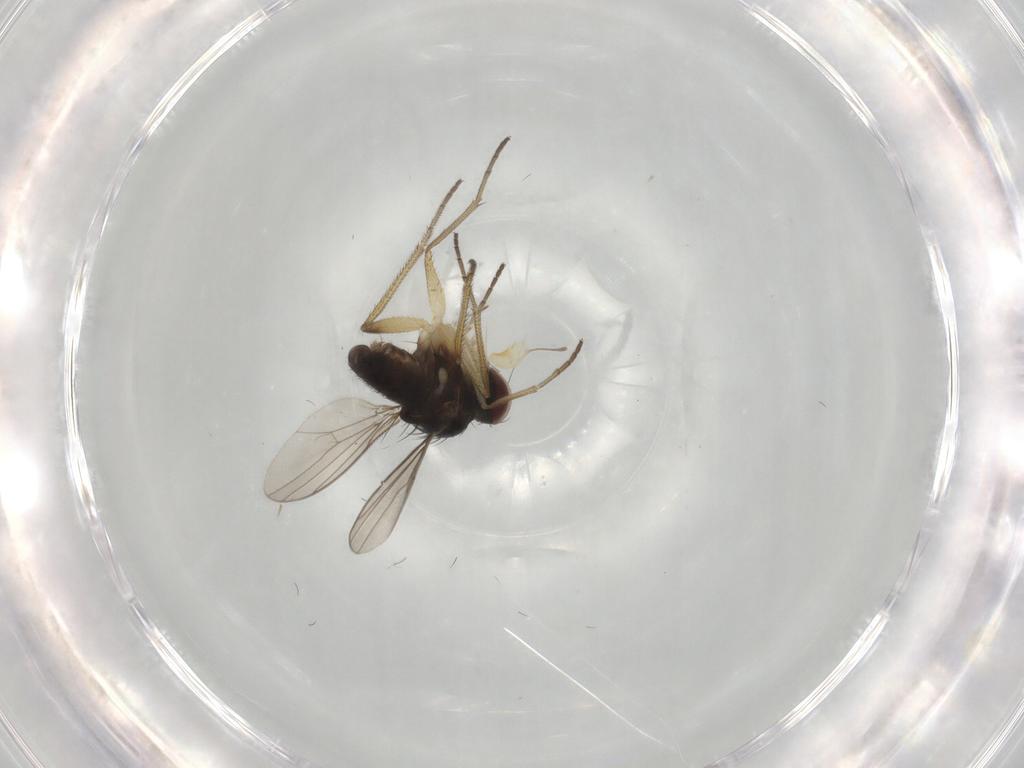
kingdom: Animalia
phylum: Arthropoda
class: Insecta
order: Diptera
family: Dolichopodidae
